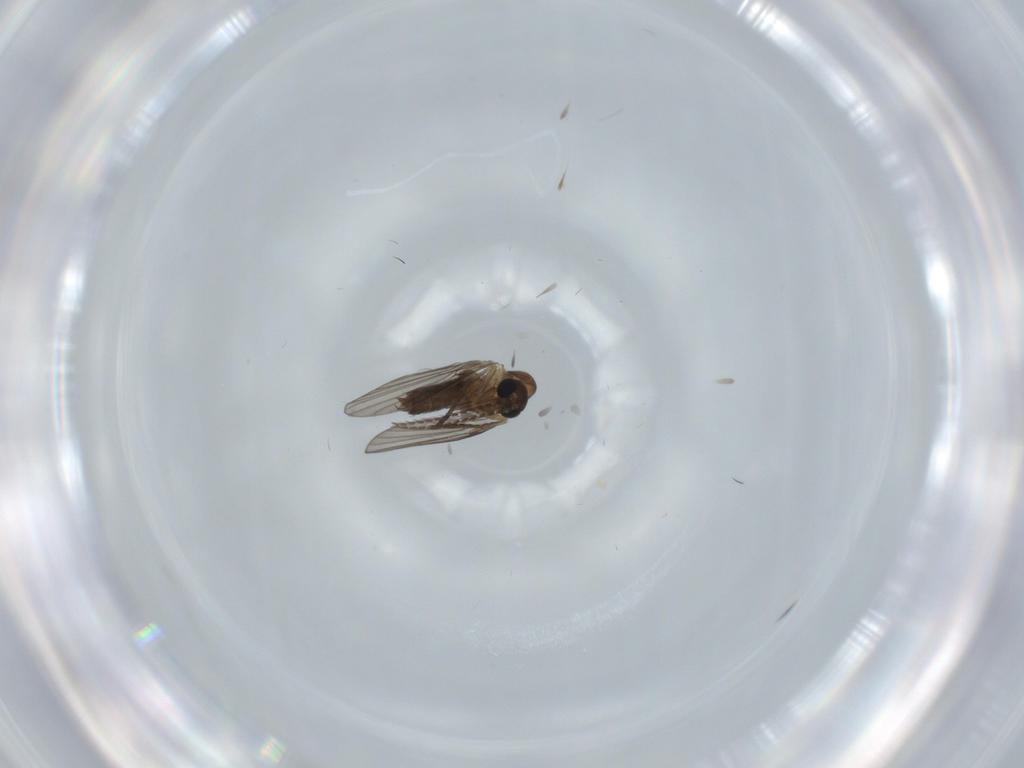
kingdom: Animalia
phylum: Arthropoda
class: Insecta
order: Diptera
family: Psychodidae
